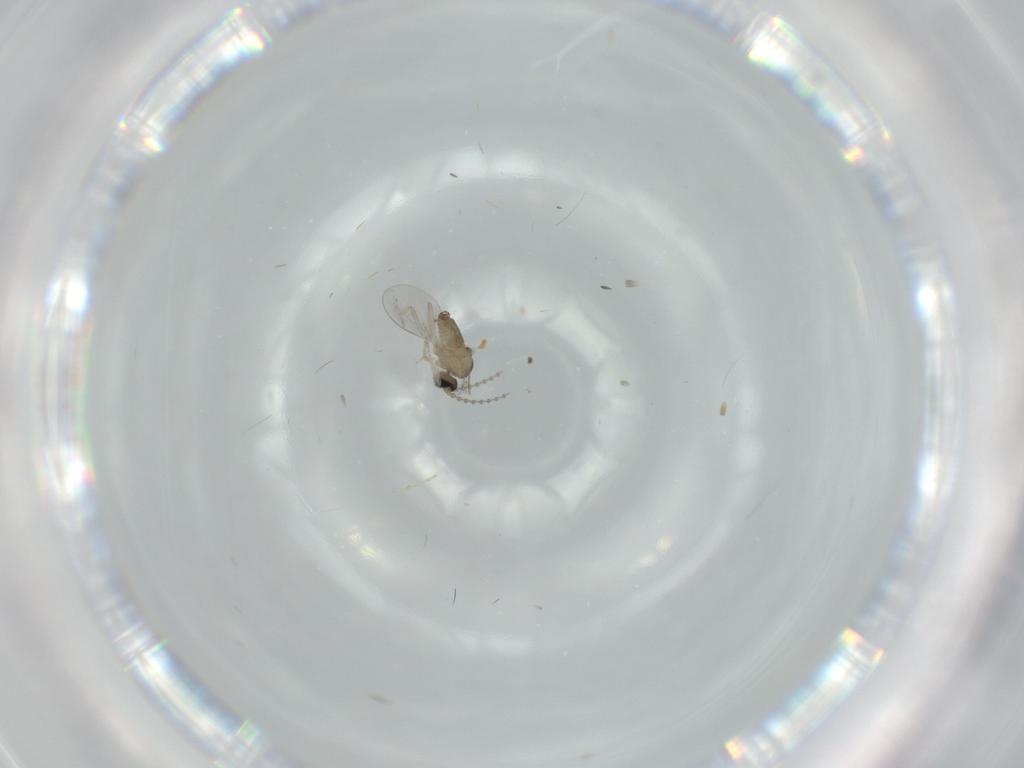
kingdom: Animalia
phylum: Arthropoda
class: Insecta
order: Diptera
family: Cecidomyiidae
